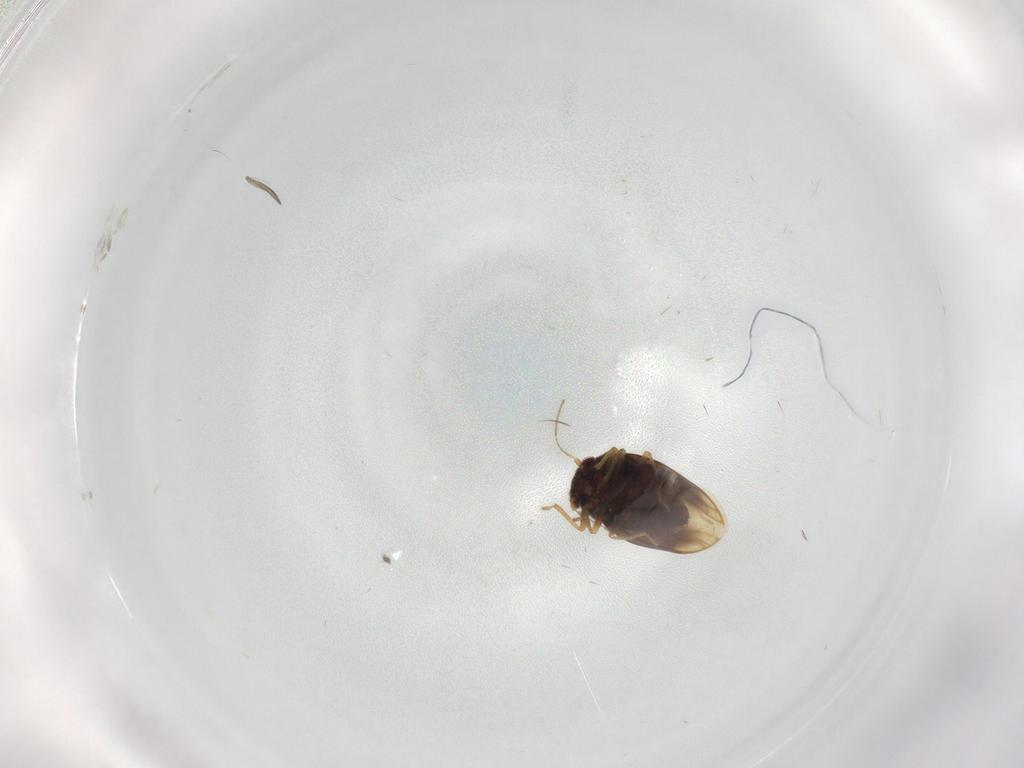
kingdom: Animalia
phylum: Arthropoda
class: Insecta
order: Hemiptera
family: Schizopteridae
